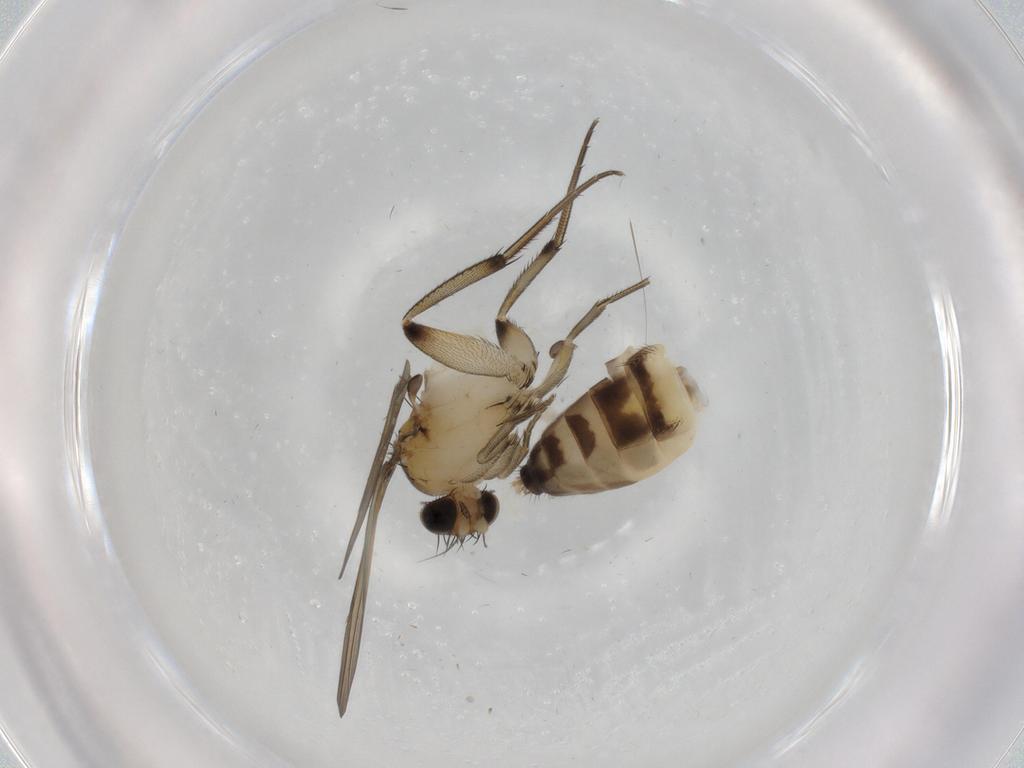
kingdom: Animalia
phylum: Arthropoda
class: Insecta
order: Diptera
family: Phoridae
